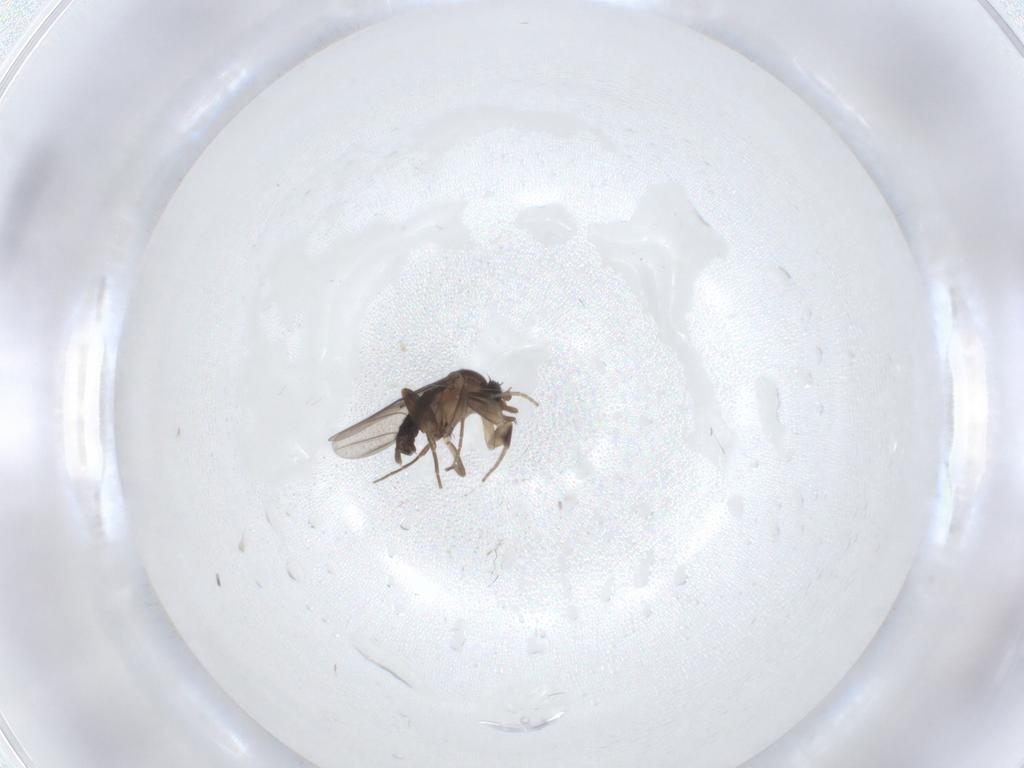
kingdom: Animalia
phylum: Arthropoda
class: Insecta
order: Diptera
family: Phoridae
